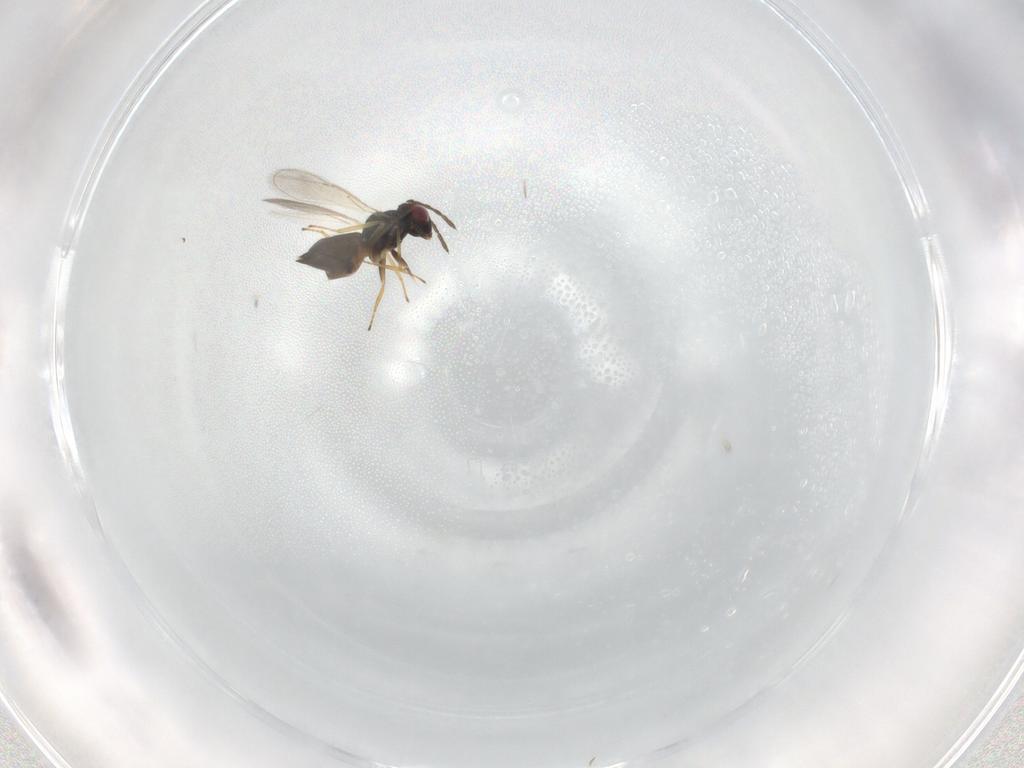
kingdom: Animalia
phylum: Arthropoda
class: Insecta
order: Hymenoptera
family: Eulophidae
